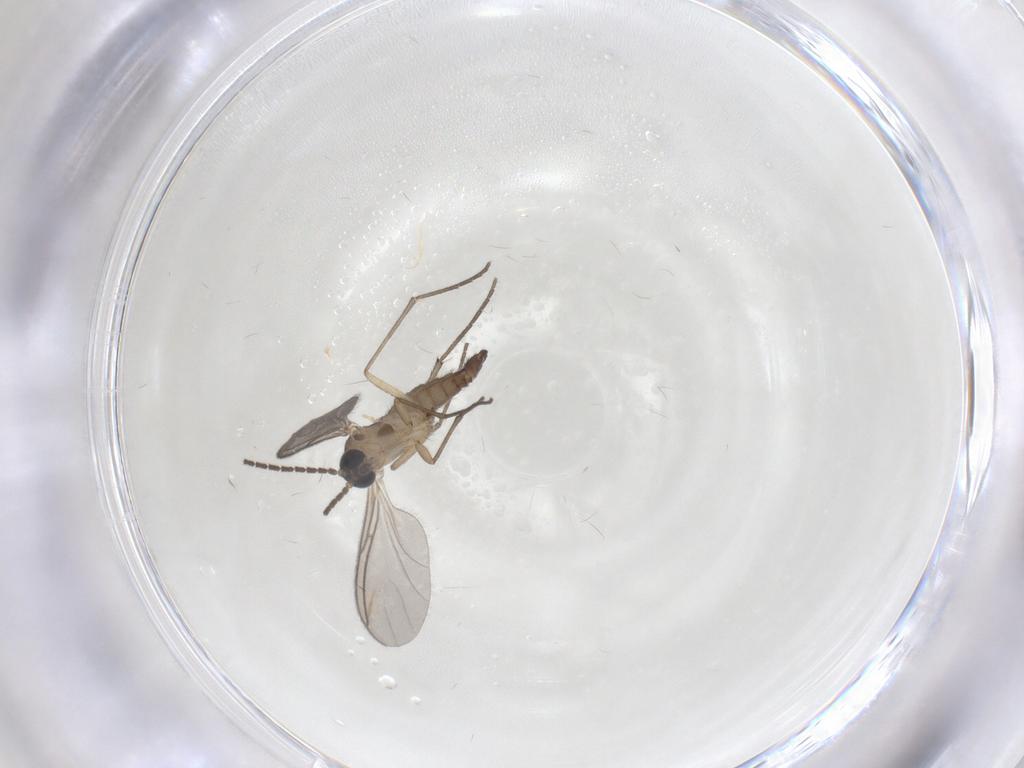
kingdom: Animalia
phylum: Arthropoda
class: Insecta
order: Diptera
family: Sciaridae
